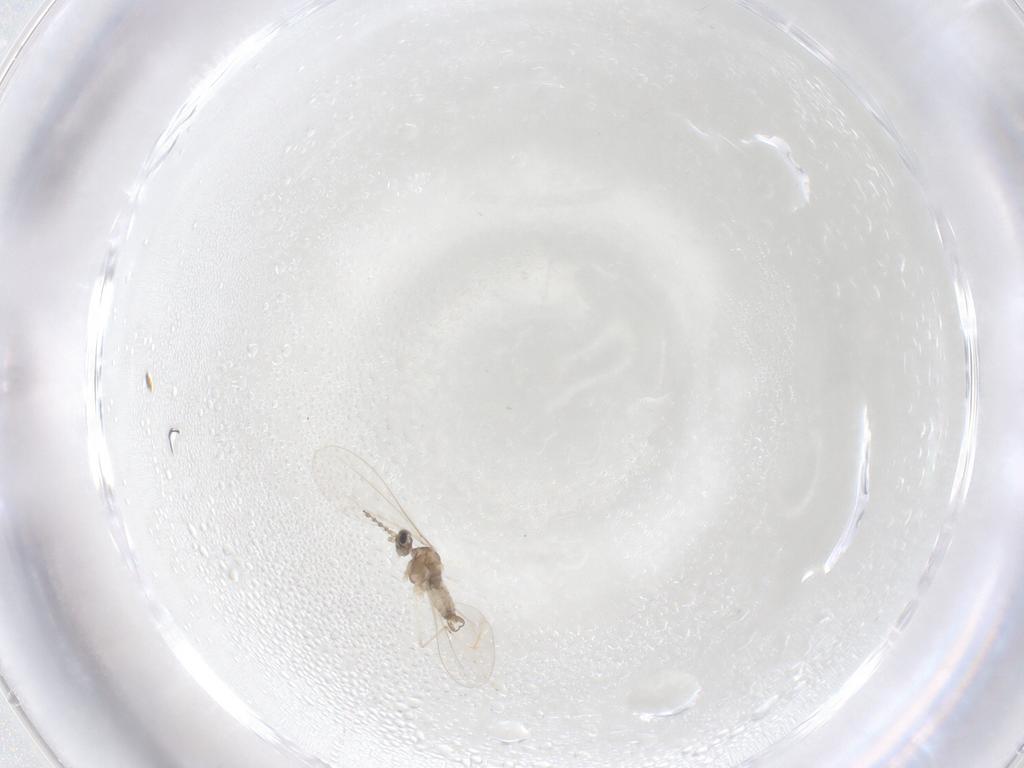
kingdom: Animalia
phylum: Arthropoda
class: Insecta
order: Diptera
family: Cecidomyiidae
